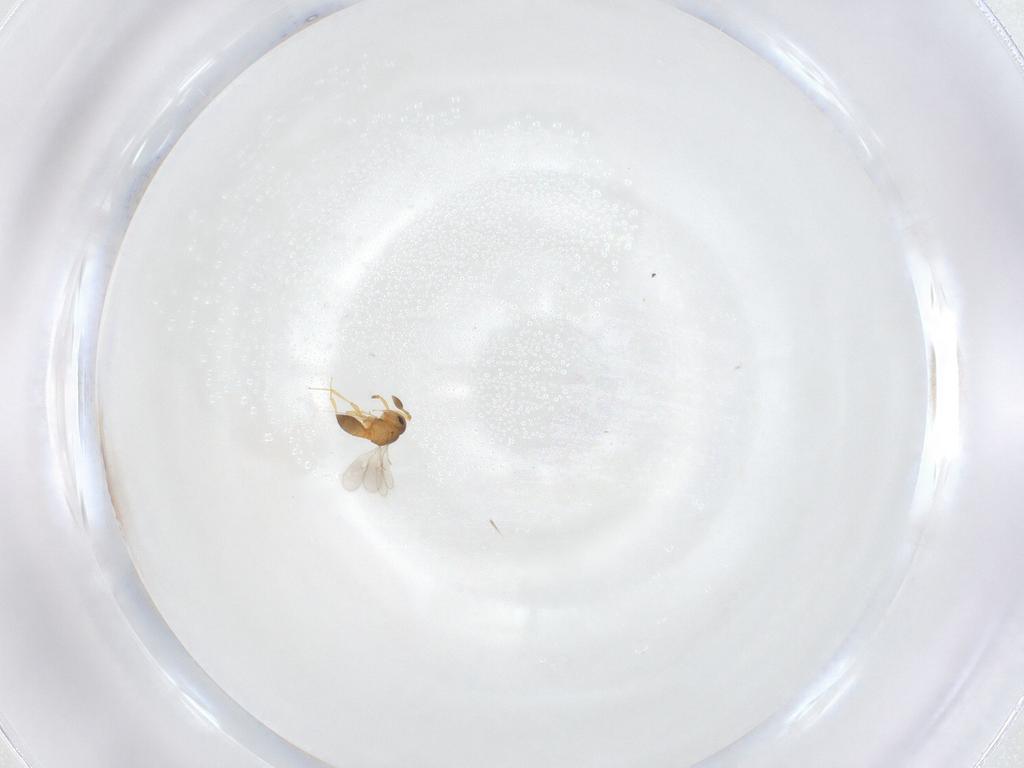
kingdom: Animalia
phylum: Arthropoda
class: Insecta
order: Hymenoptera
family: Scelionidae
